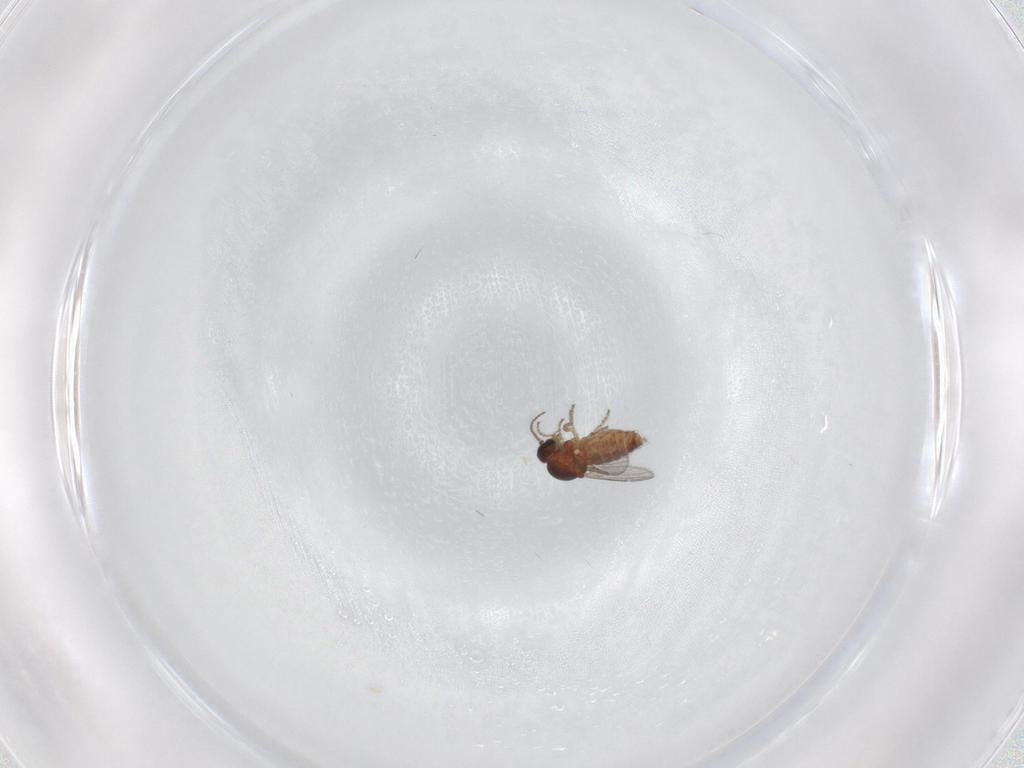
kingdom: Animalia
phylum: Arthropoda
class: Insecta
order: Diptera
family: Ceratopogonidae
